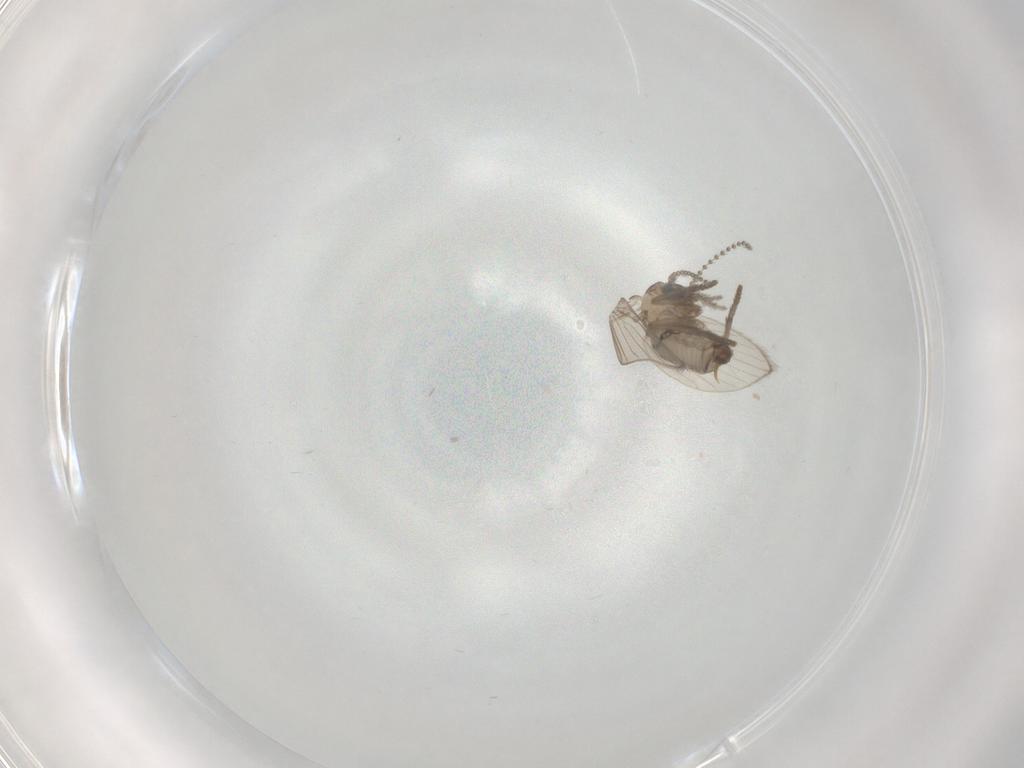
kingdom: Animalia
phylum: Arthropoda
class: Insecta
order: Diptera
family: Psychodidae
